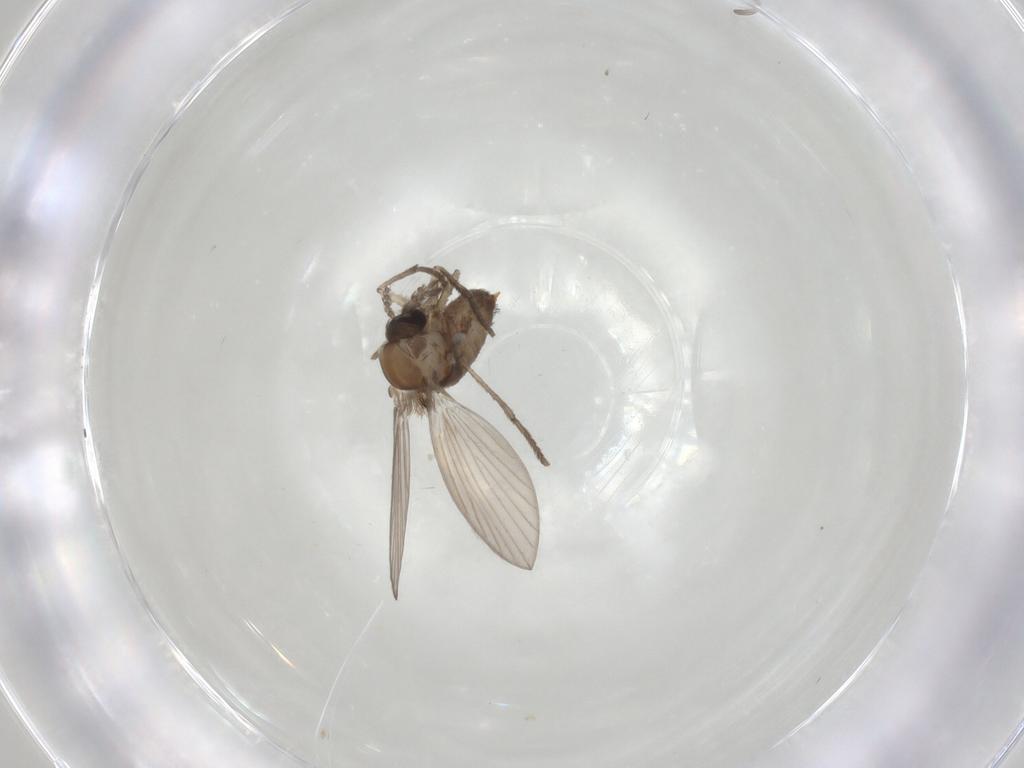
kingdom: Animalia
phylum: Arthropoda
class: Insecta
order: Diptera
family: Psychodidae
